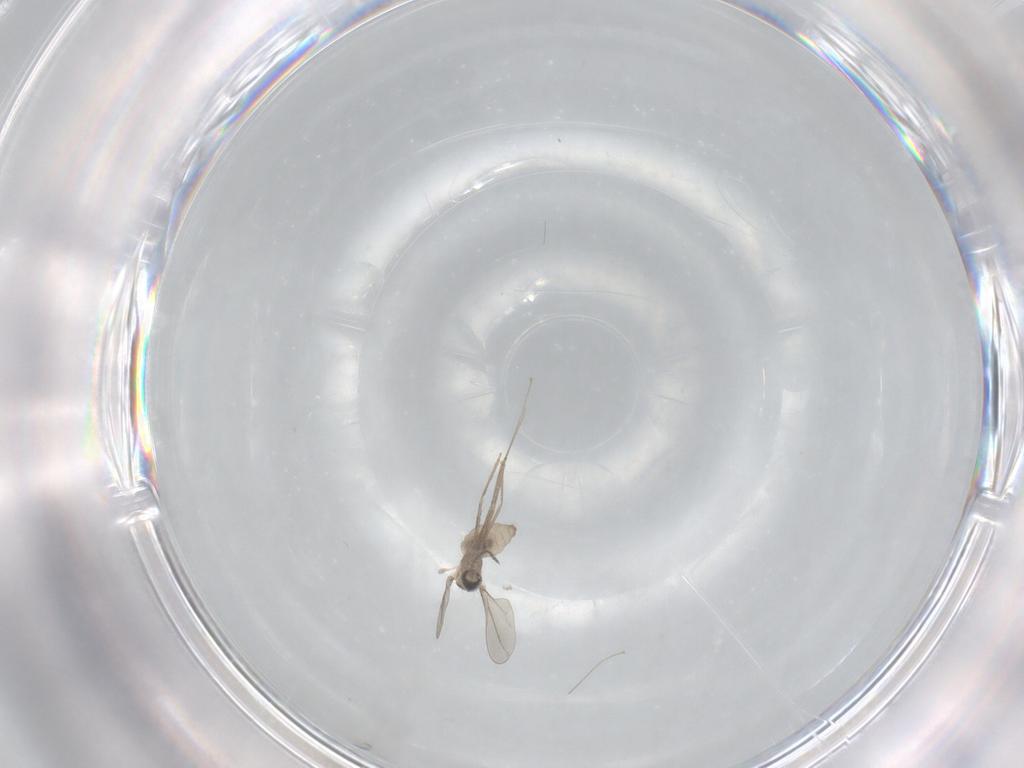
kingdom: Animalia
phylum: Arthropoda
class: Insecta
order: Diptera
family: Cecidomyiidae
